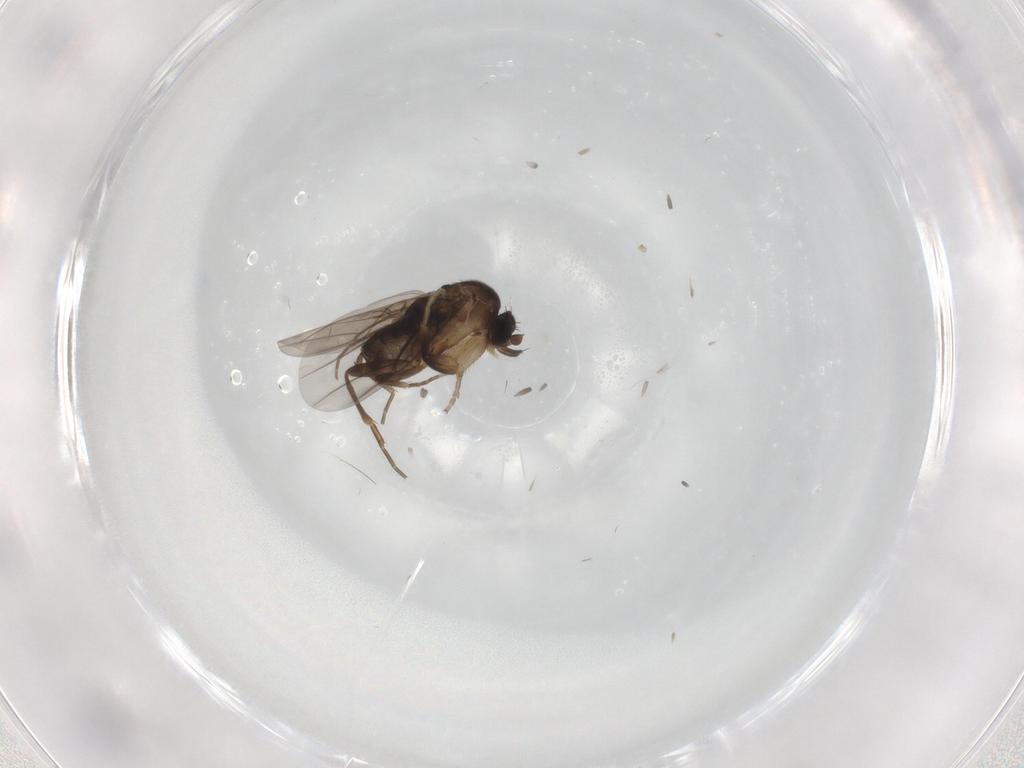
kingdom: Animalia
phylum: Arthropoda
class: Insecta
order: Diptera
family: Phoridae
